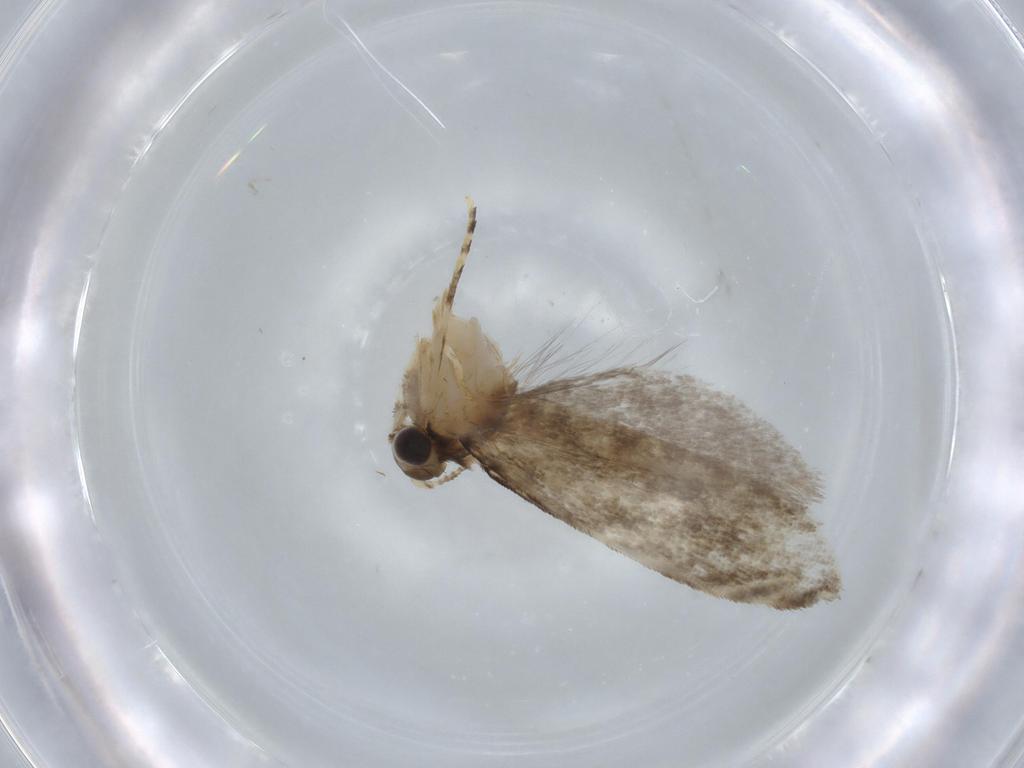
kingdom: Animalia
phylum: Arthropoda
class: Insecta
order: Lepidoptera
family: Tineidae
